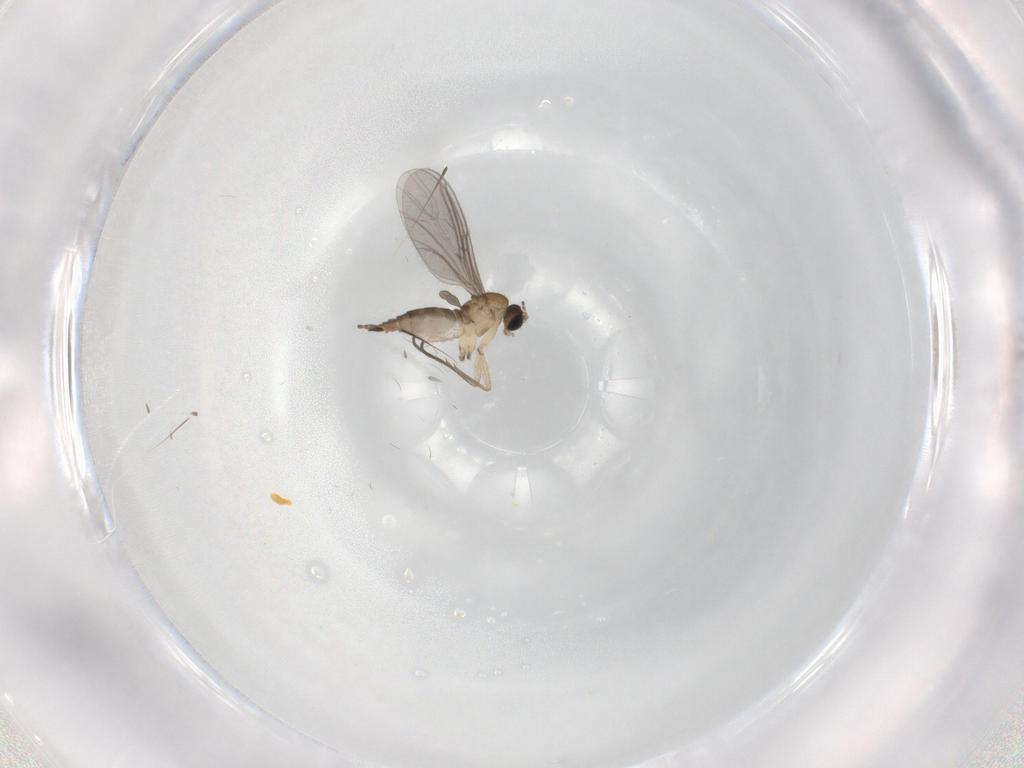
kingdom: Animalia
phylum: Arthropoda
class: Insecta
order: Diptera
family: Sciaridae
